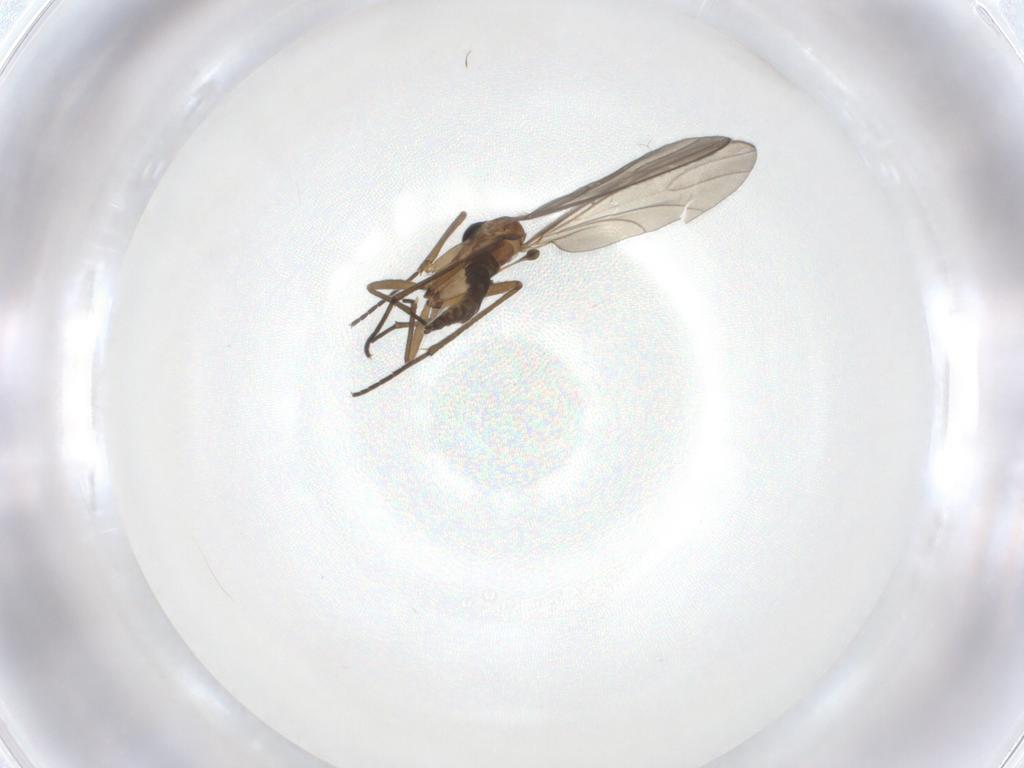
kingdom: Animalia
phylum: Arthropoda
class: Insecta
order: Diptera
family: Sciaridae
